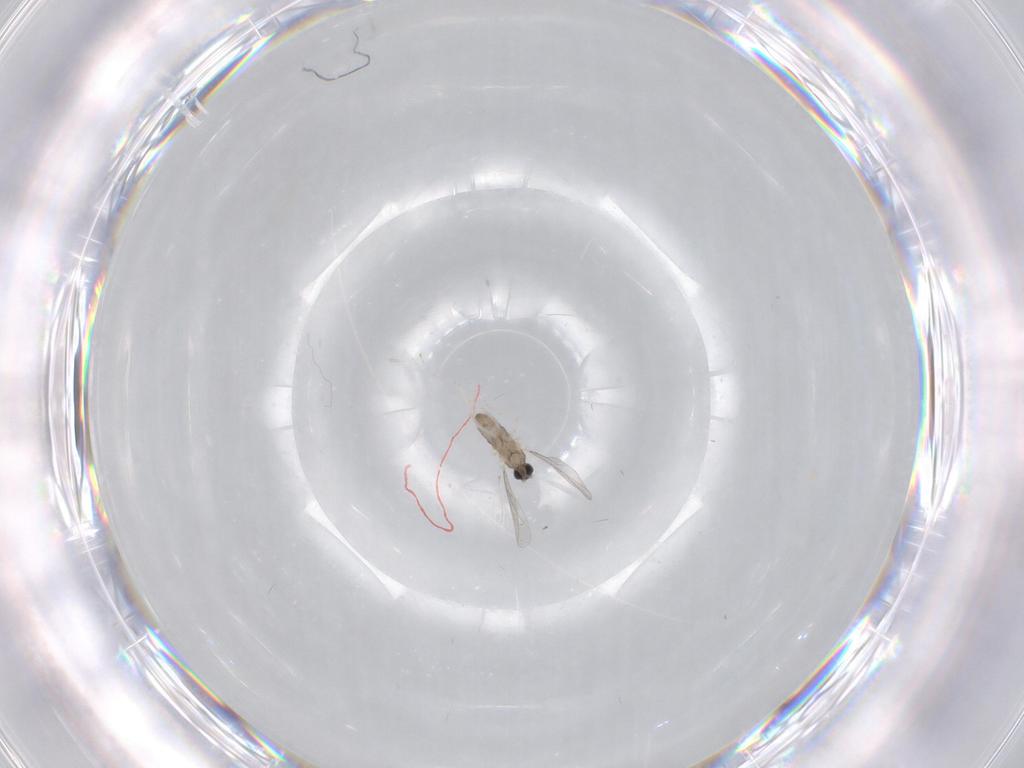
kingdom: Animalia
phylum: Arthropoda
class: Insecta
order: Diptera
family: Cecidomyiidae
